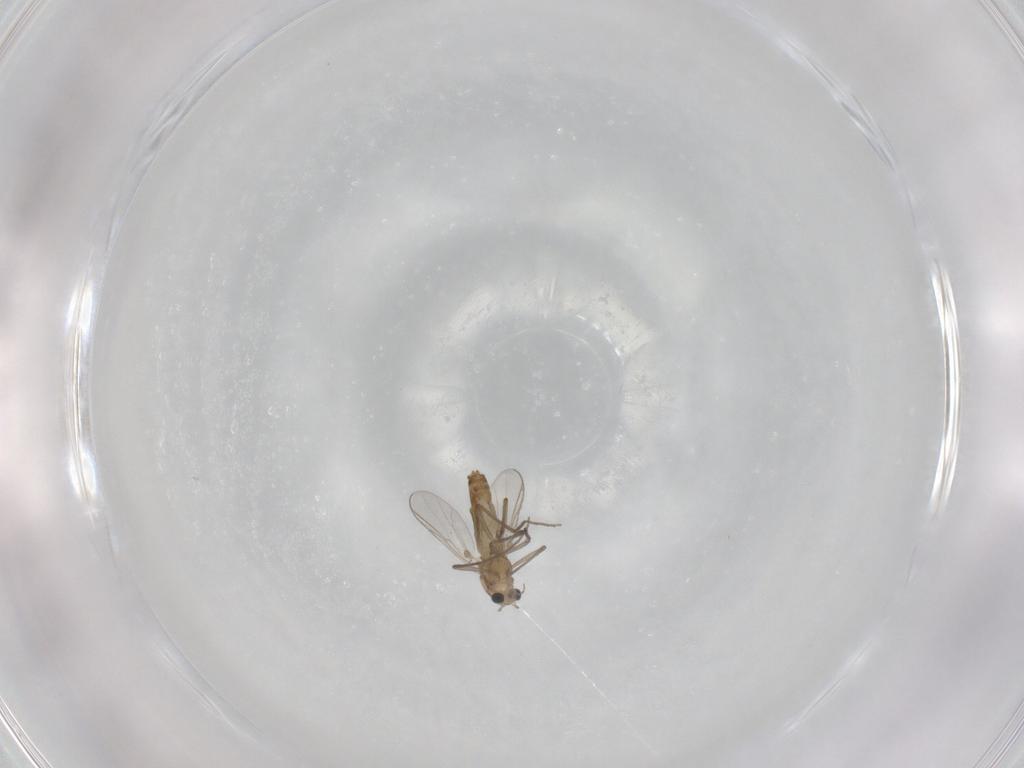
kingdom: Animalia
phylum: Arthropoda
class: Insecta
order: Diptera
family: Chironomidae
